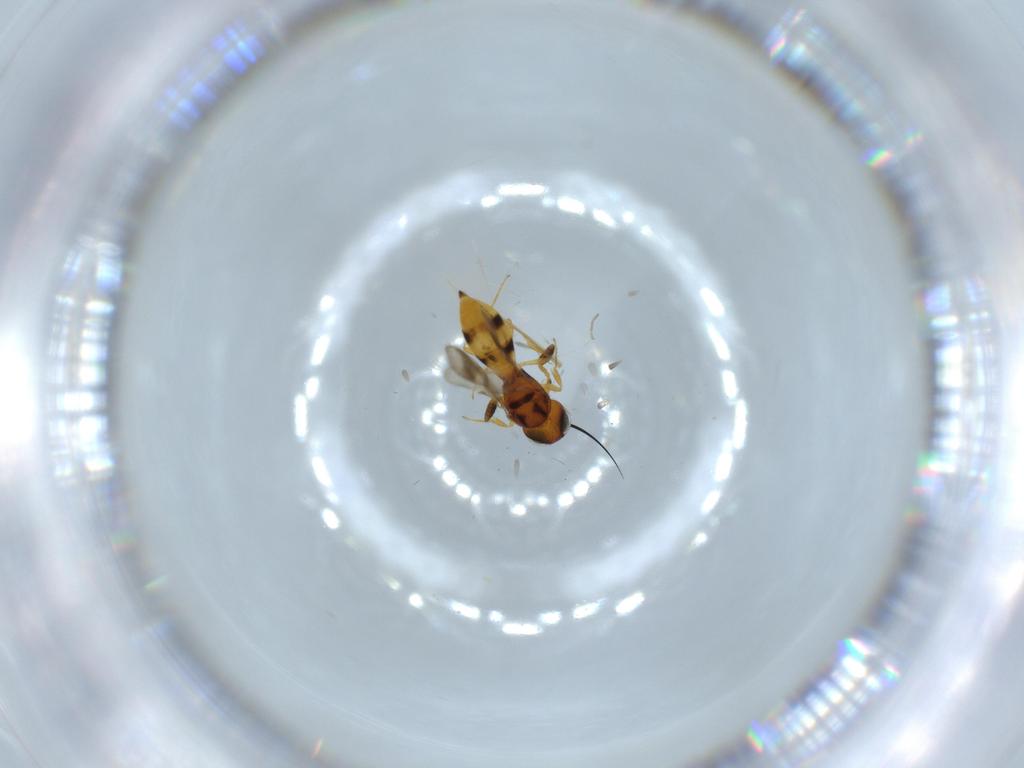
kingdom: Animalia
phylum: Arthropoda
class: Insecta
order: Hymenoptera
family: Scelionidae
